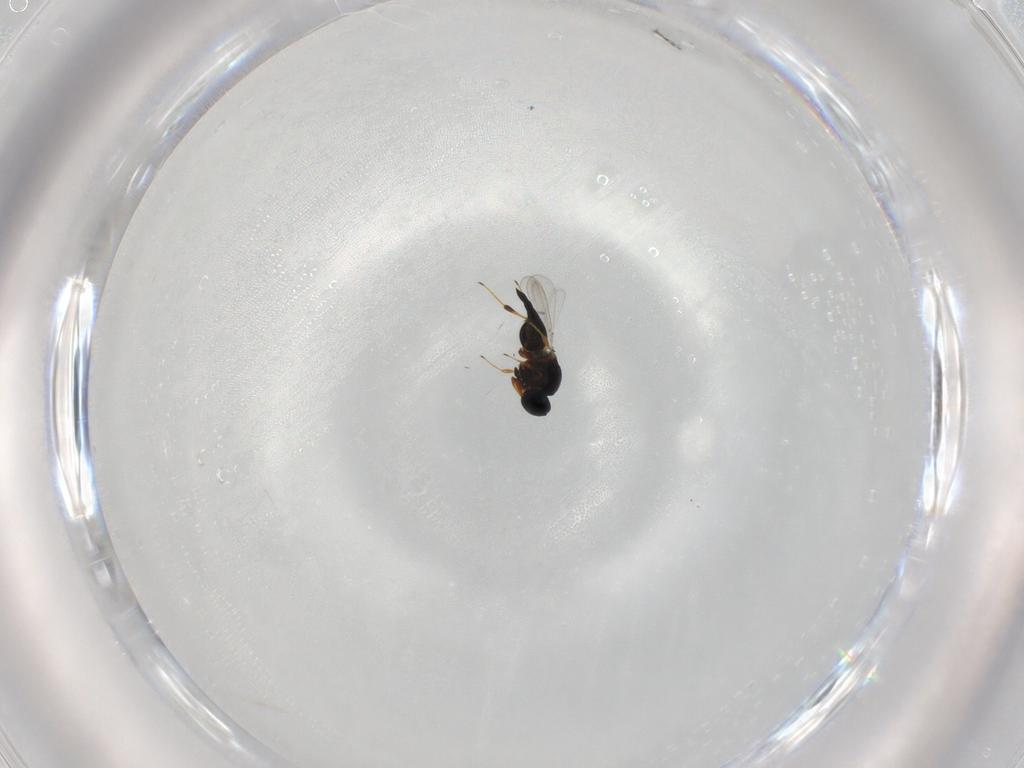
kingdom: Animalia
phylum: Arthropoda
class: Insecta
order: Hymenoptera
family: Platygastridae
